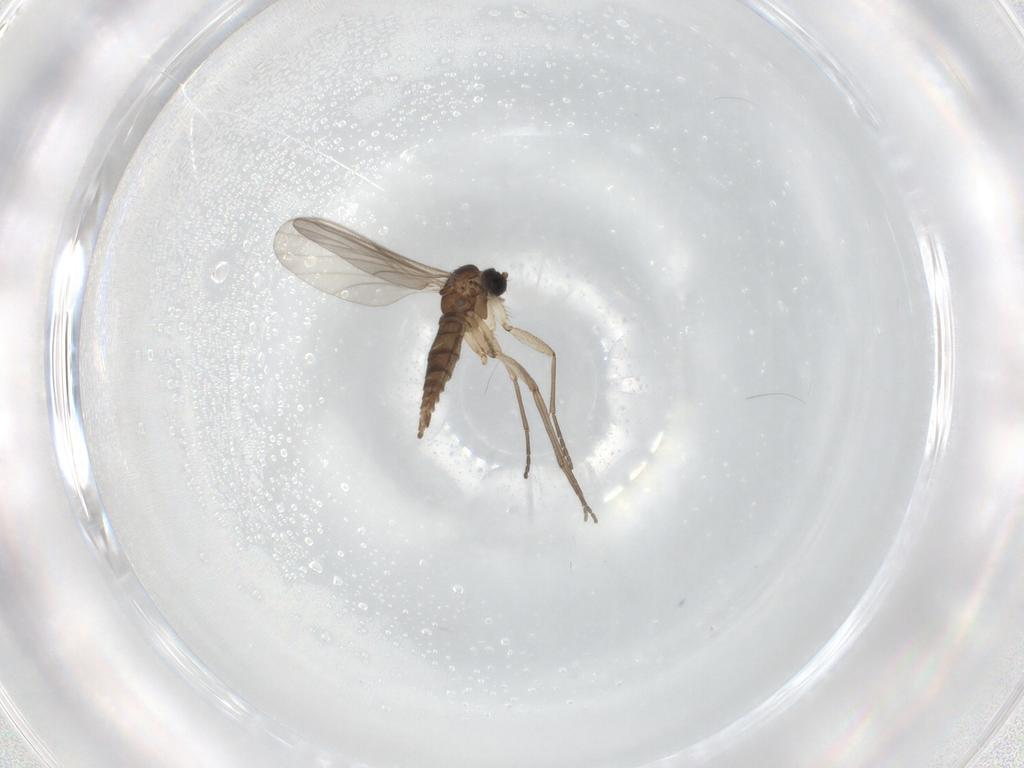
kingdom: Animalia
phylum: Arthropoda
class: Insecta
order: Diptera
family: Sciaridae
